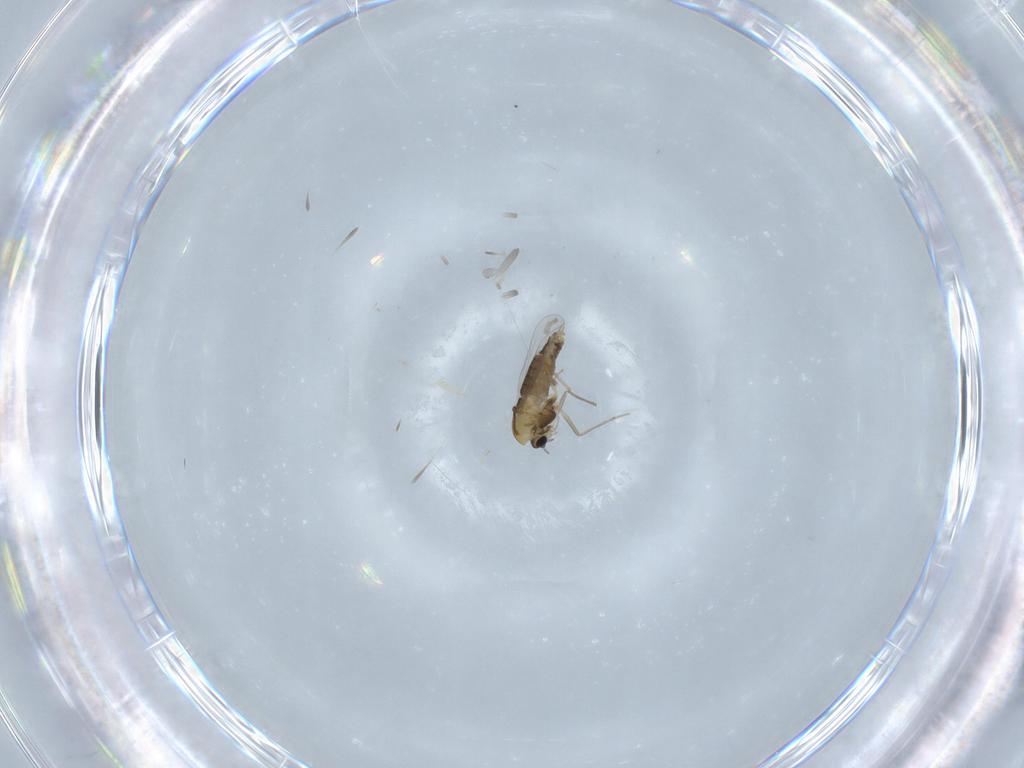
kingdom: Animalia
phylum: Arthropoda
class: Insecta
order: Diptera
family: Chironomidae
